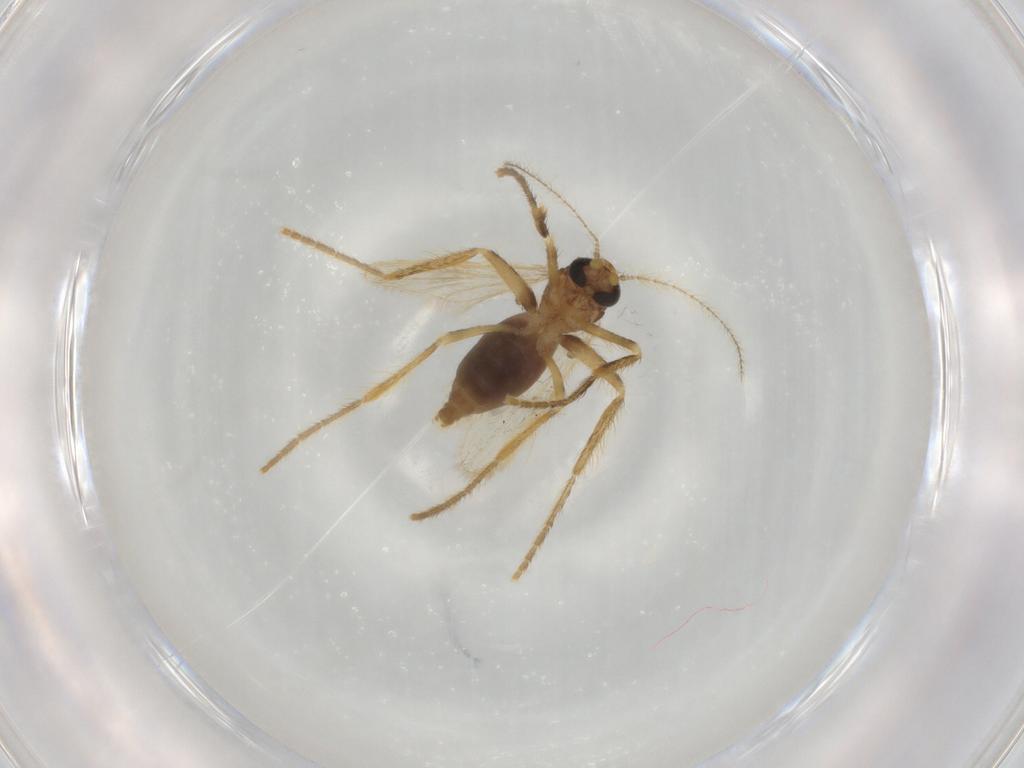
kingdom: Animalia
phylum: Arthropoda
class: Insecta
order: Diptera
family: Corethrellidae
